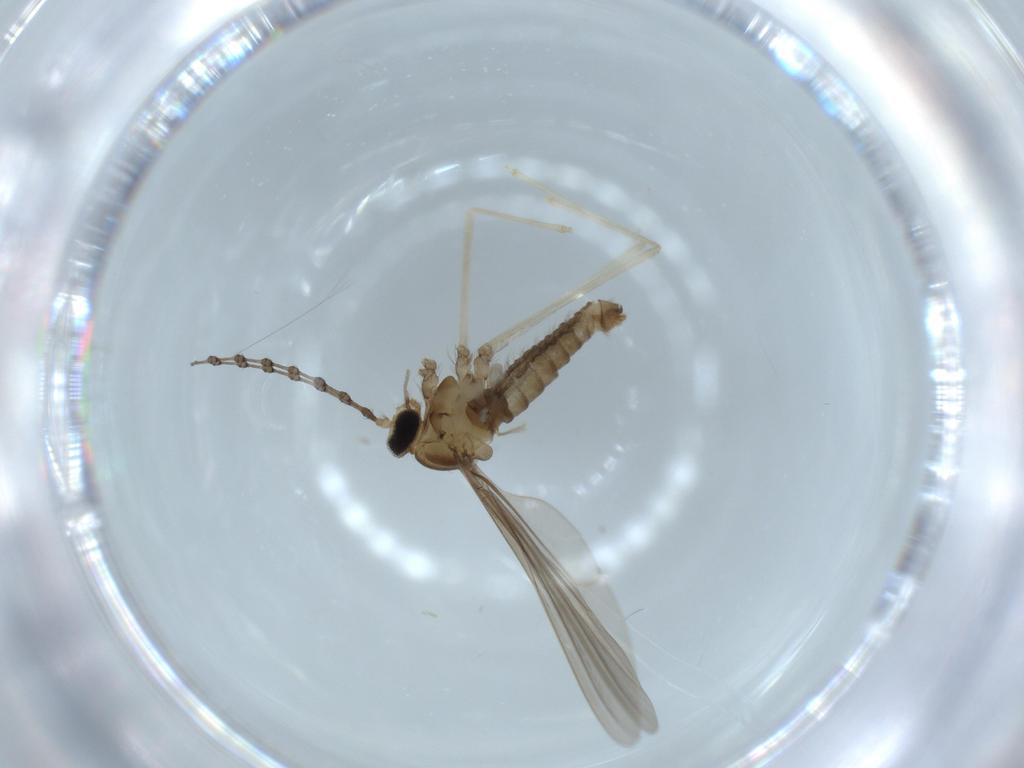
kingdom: Animalia
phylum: Arthropoda
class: Insecta
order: Diptera
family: Cecidomyiidae
